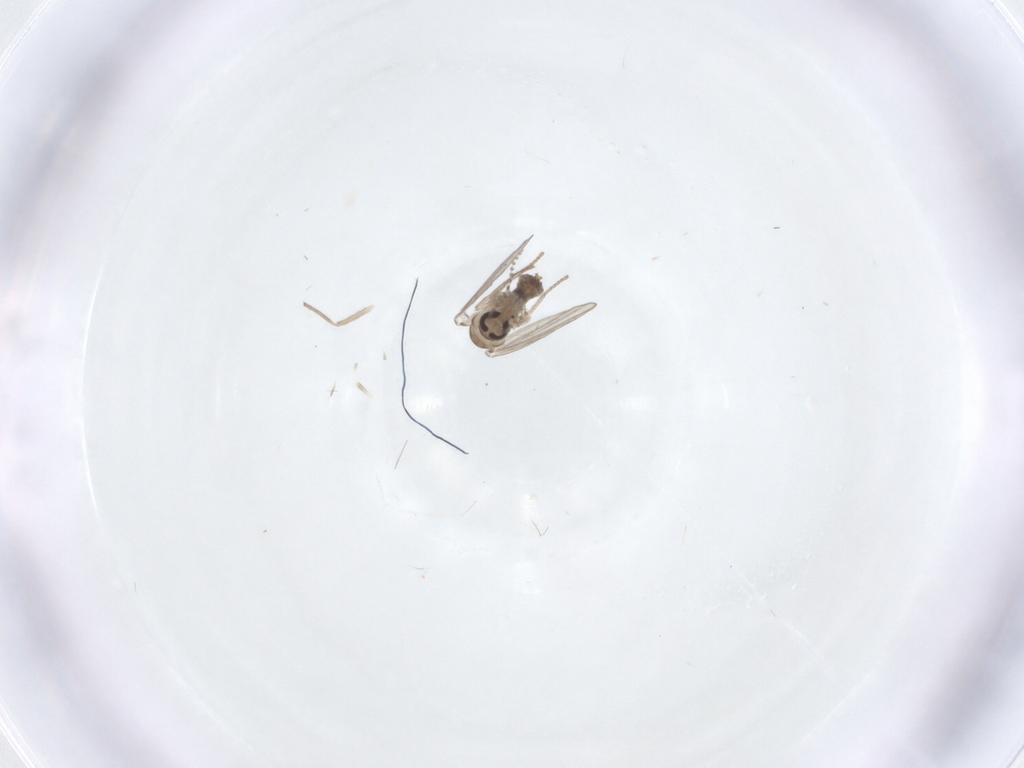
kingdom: Animalia
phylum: Arthropoda
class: Insecta
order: Diptera
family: Psychodidae
